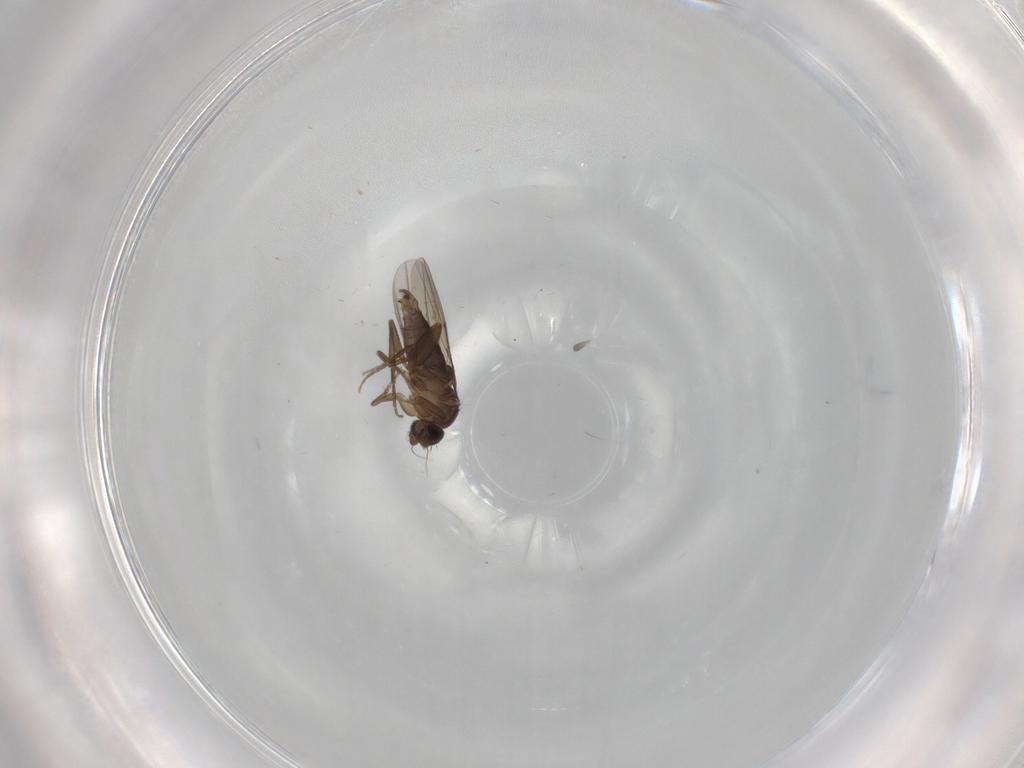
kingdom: Animalia
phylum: Arthropoda
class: Insecta
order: Diptera
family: Phoridae
